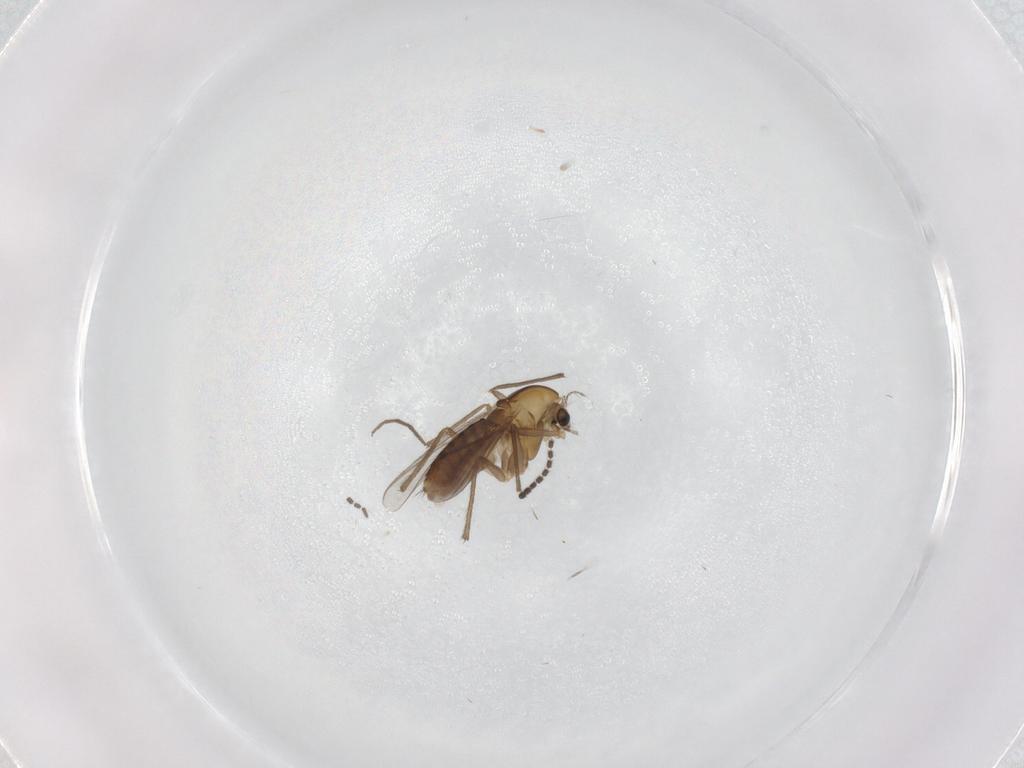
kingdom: Animalia
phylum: Arthropoda
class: Insecta
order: Diptera
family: Chironomidae
